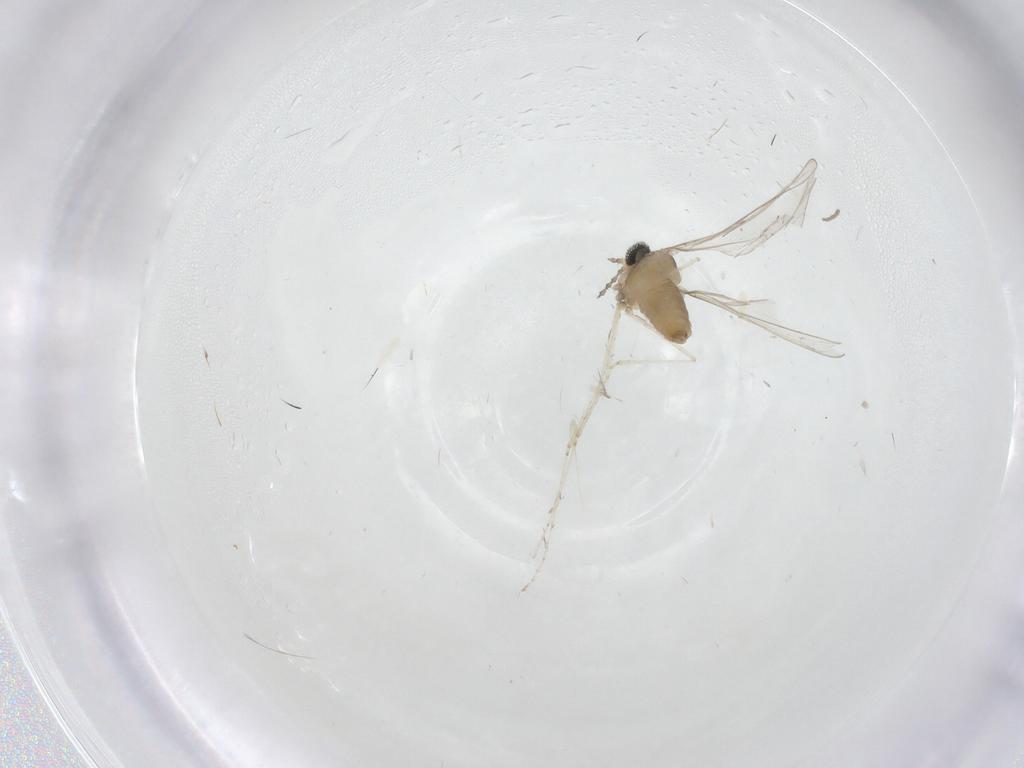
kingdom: Animalia
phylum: Arthropoda
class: Insecta
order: Diptera
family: Cecidomyiidae
